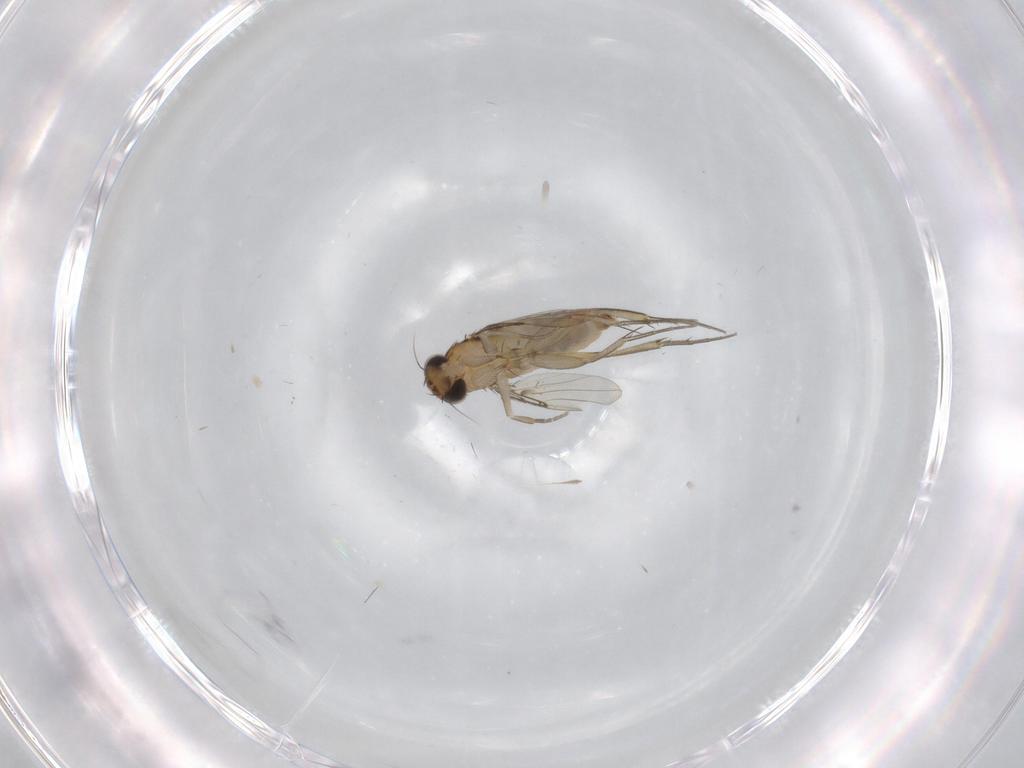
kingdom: Animalia
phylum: Arthropoda
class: Insecta
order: Diptera
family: Phoridae
